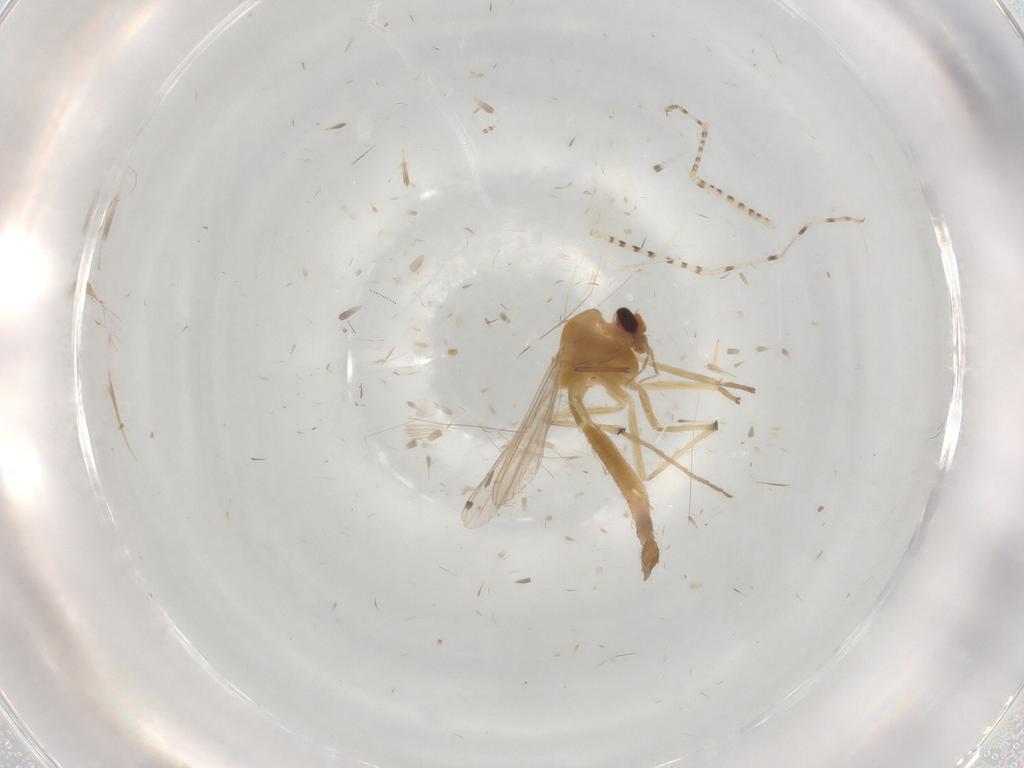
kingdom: Animalia
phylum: Arthropoda
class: Insecta
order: Diptera
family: Chironomidae
